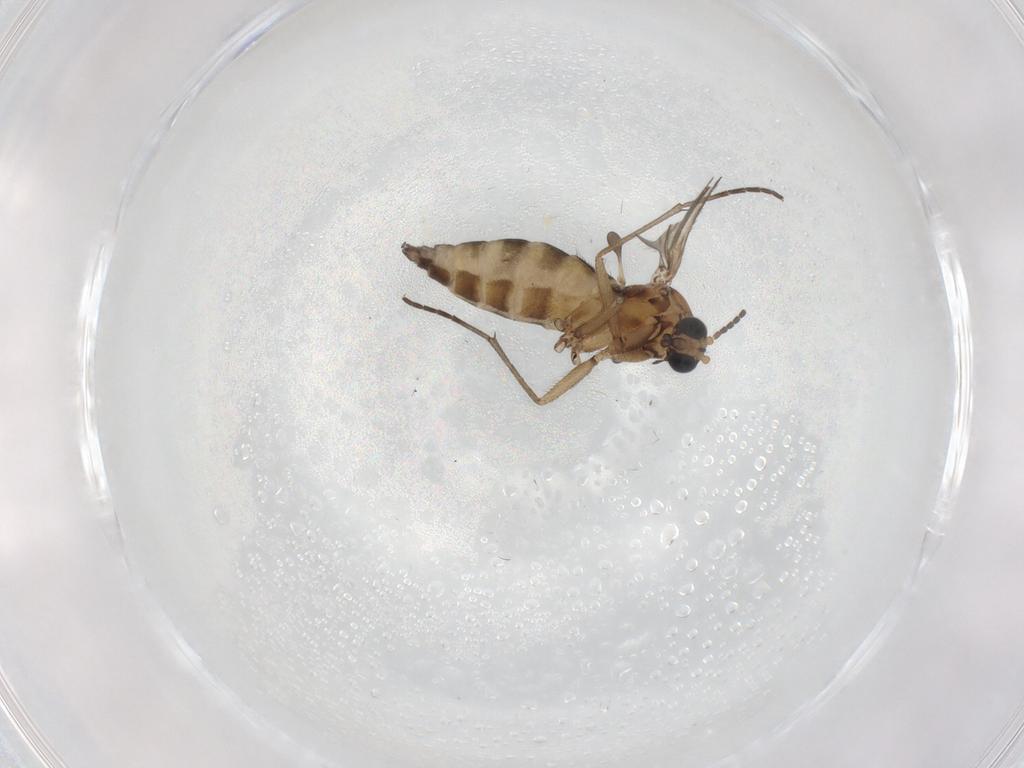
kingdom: Animalia
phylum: Arthropoda
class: Insecta
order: Diptera
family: Sciaridae
